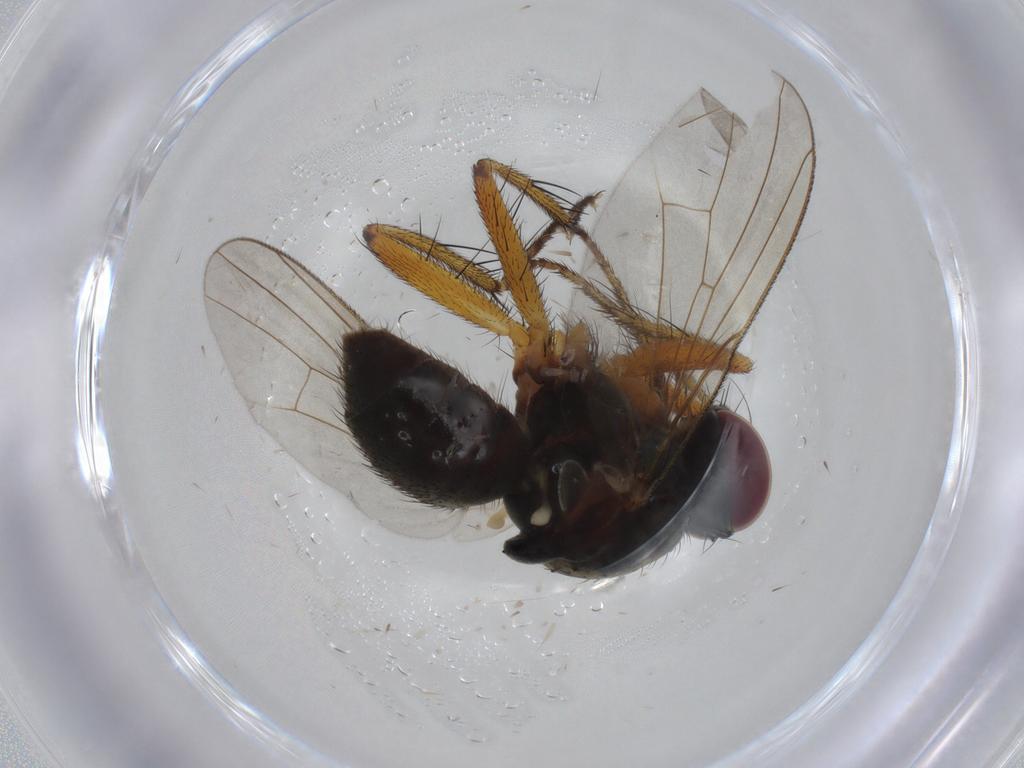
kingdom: Animalia
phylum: Arthropoda
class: Insecta
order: Diptera
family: Muscidae
